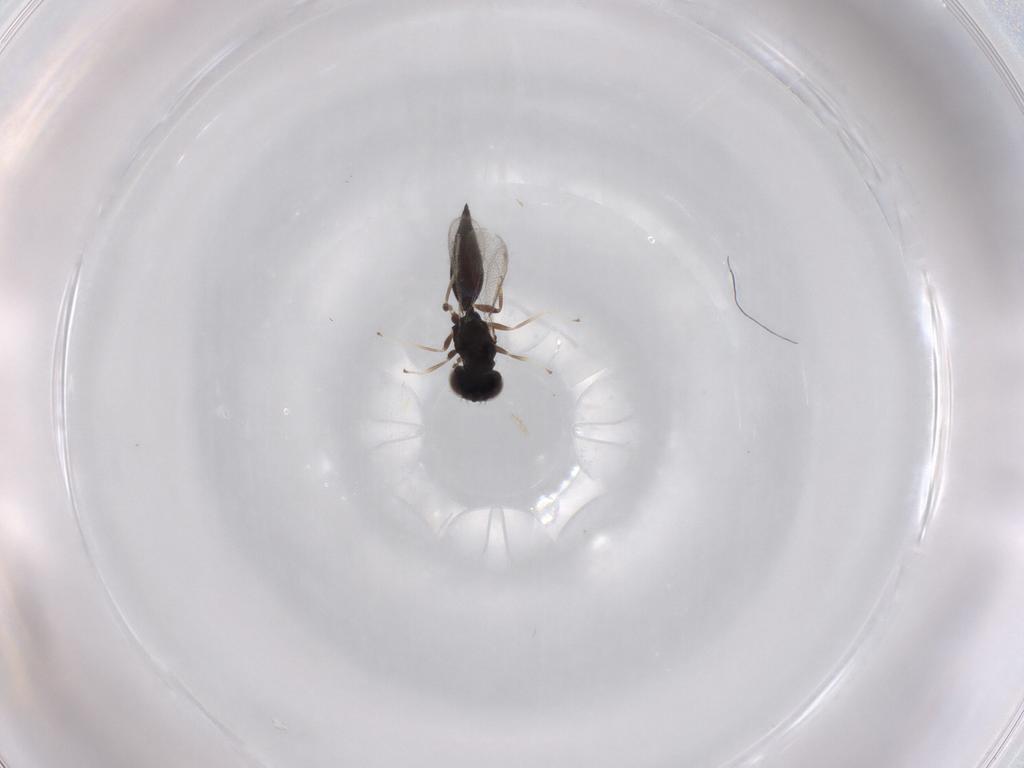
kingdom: Animalia
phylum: Arthropoda
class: Insecta
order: Hymenoptera
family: Eulophidae
